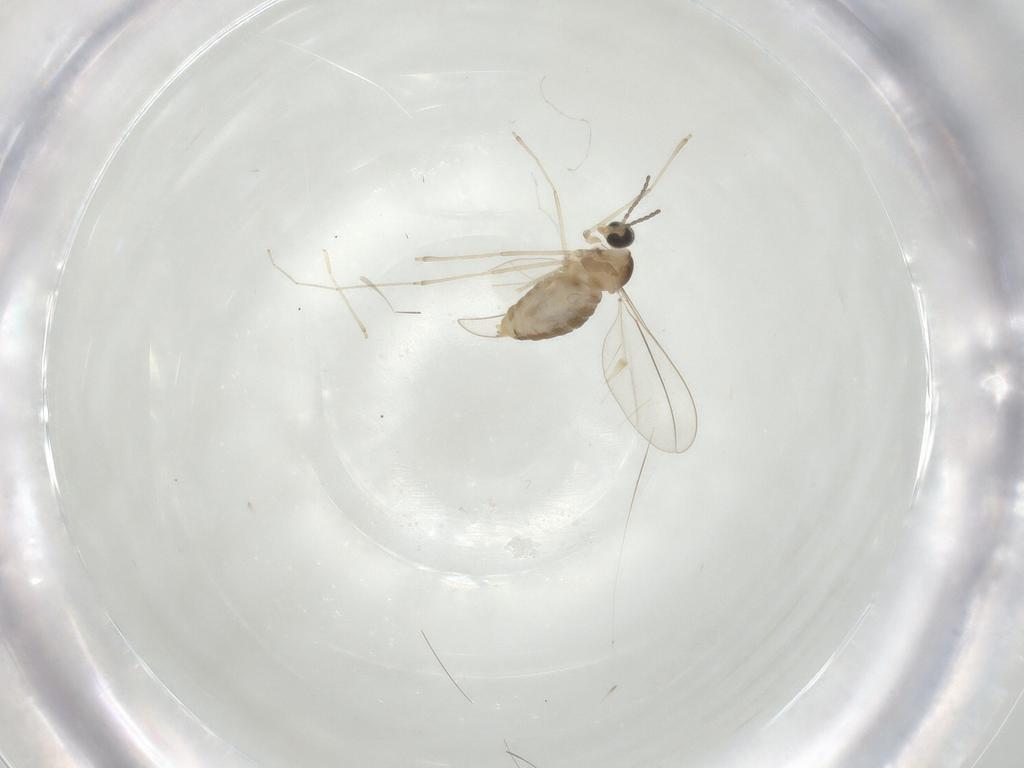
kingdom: Animalia
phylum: Arthropoda
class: Insecta
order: Diptera
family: Cecidomyiidae
